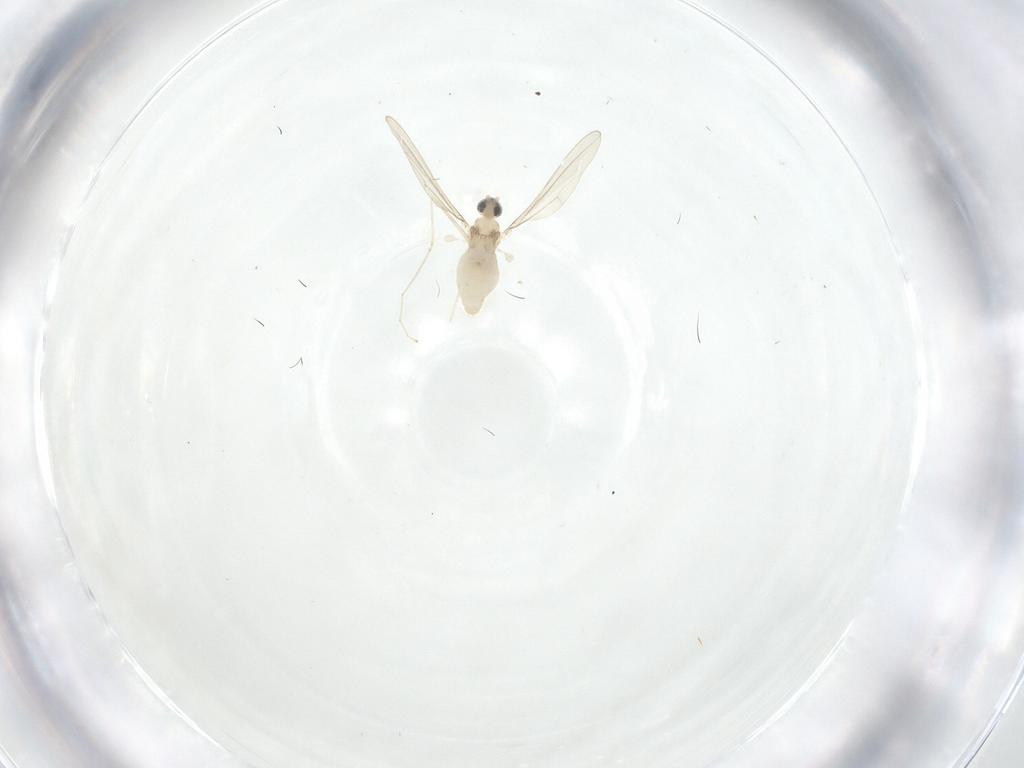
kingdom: Animalia
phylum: Arthropoda
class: Insecta
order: Diptera
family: Cecidomyiidae
